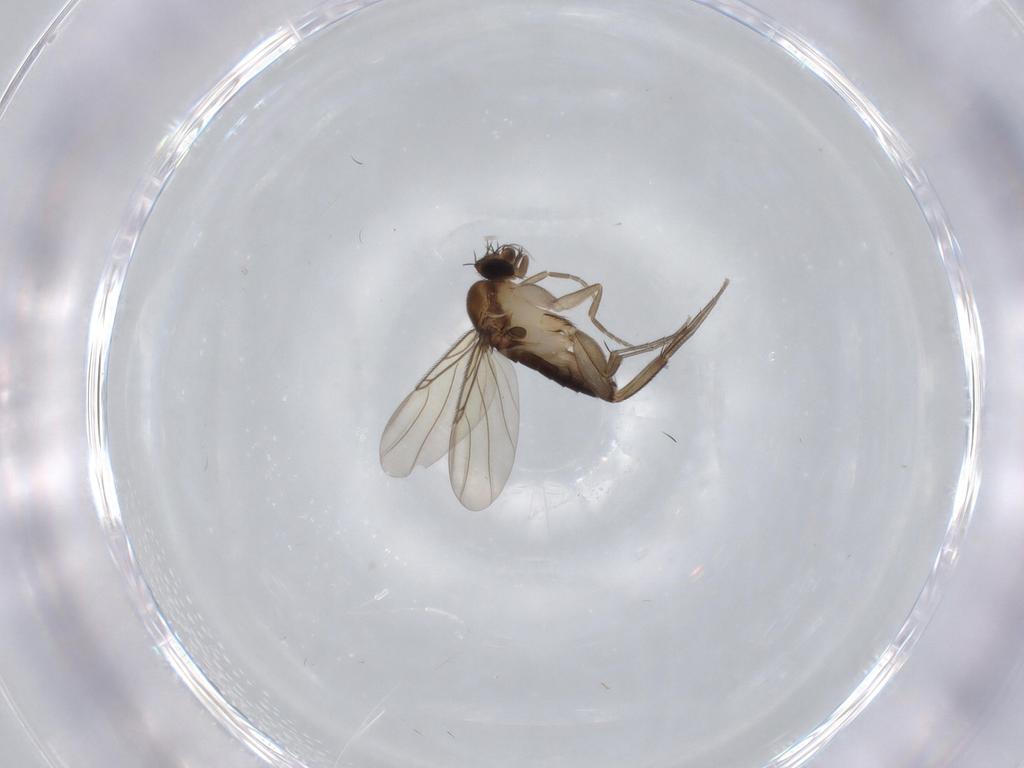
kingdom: Animalia
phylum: Arthropoda
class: Insecta
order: Diptera
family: Phoridae
